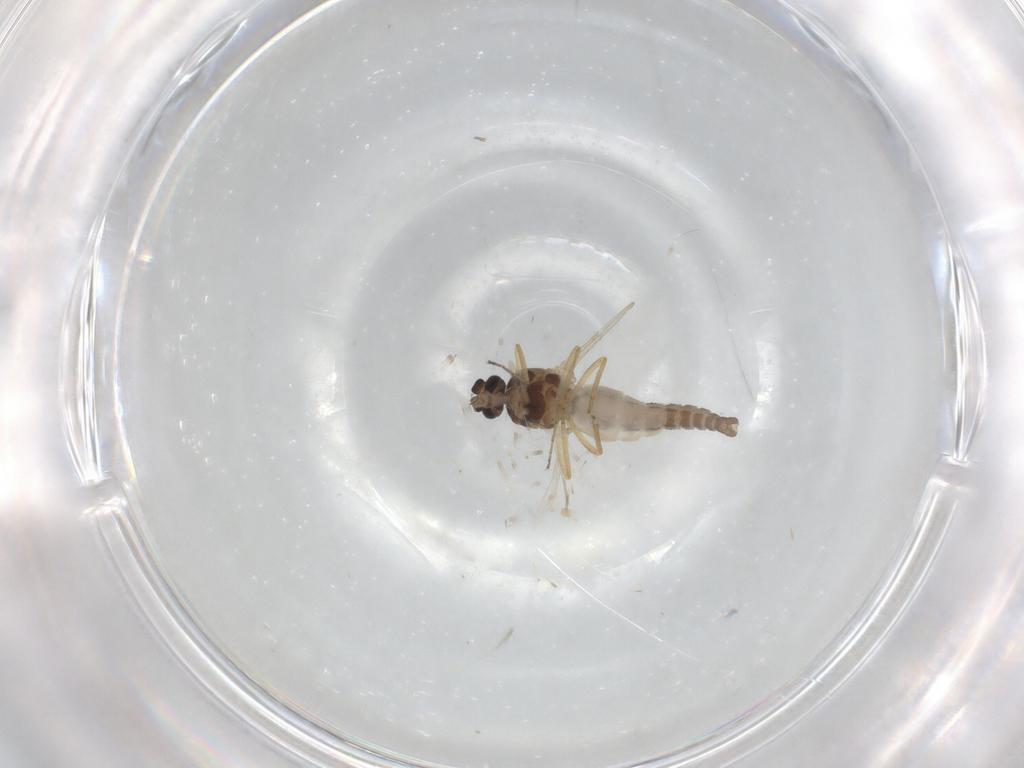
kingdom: Animalia
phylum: Arthropoda
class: Insecta
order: Diptera
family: Ceratopogonidae
